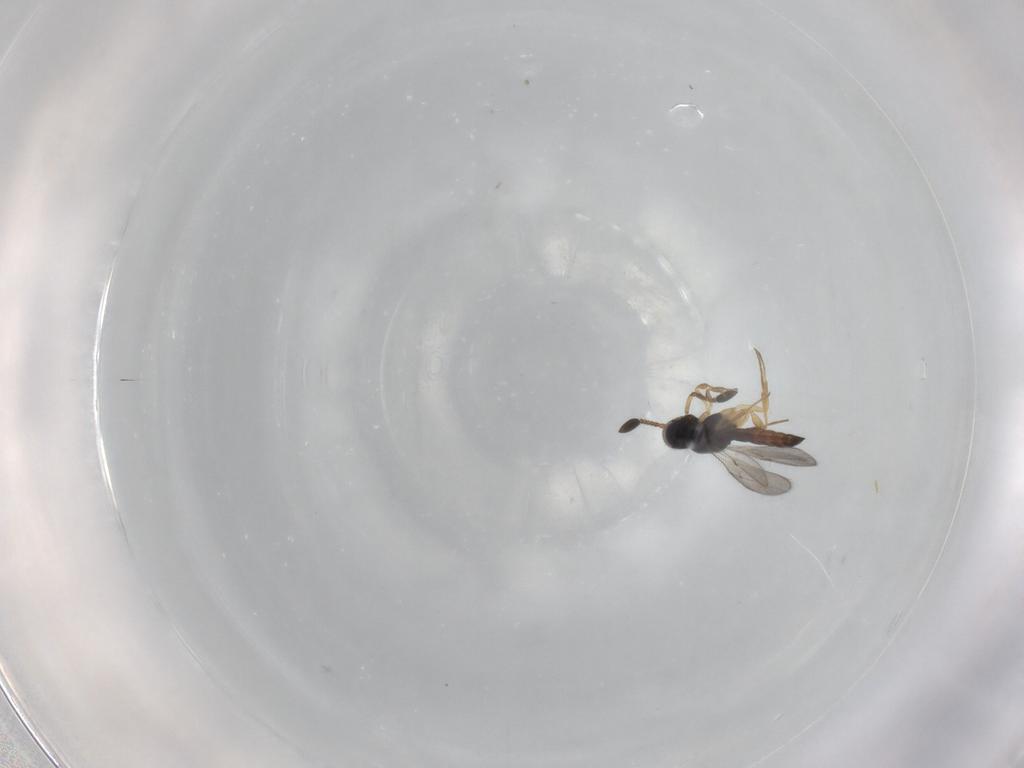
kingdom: Animalia
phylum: Arthropoda
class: Insecta
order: Hymenoptera
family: Scelionidae
